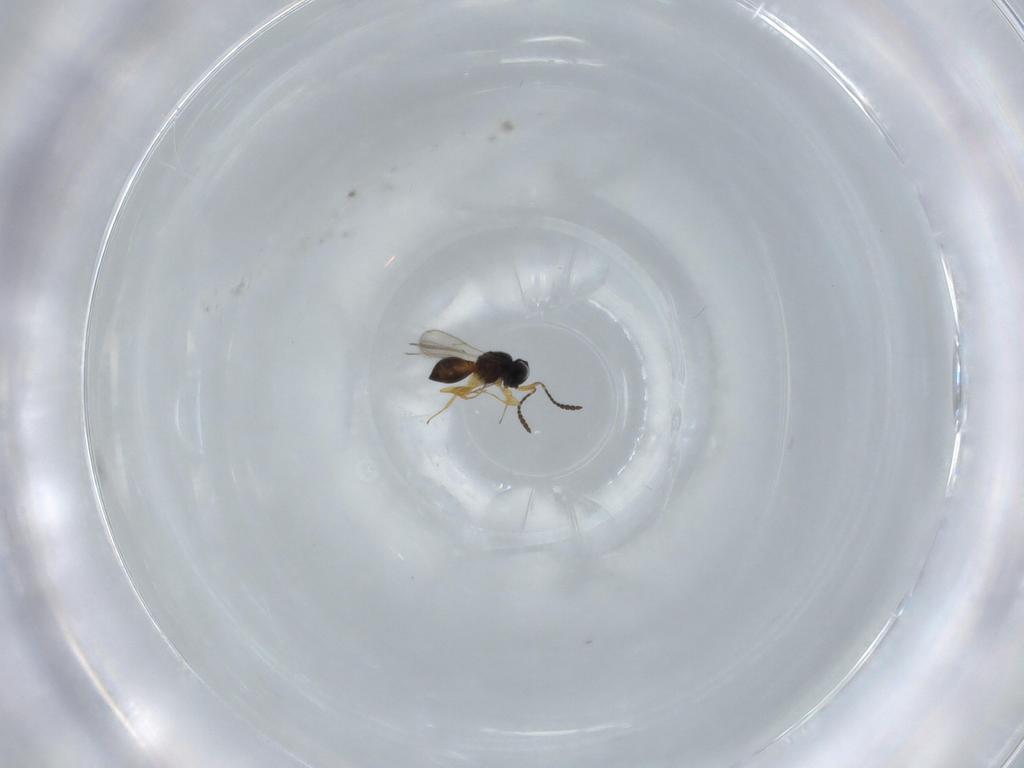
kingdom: Animalia
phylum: Arthropoda
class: Insecta
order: Hymenoptera
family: Scelionidae
